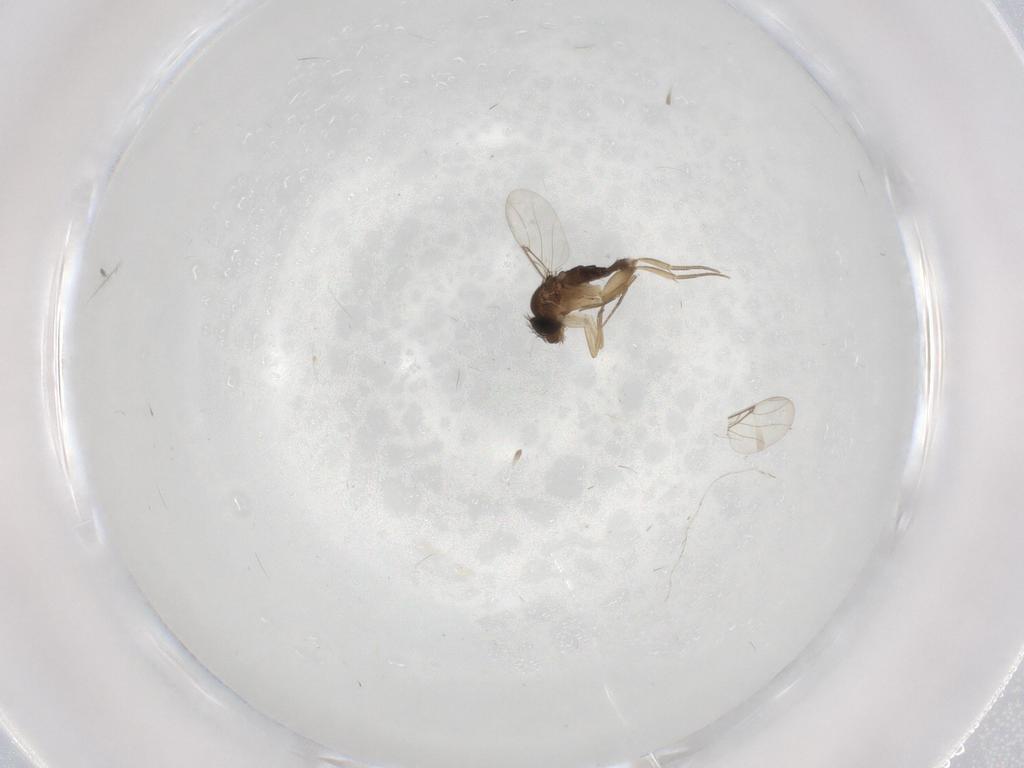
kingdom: Animalia
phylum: Arthropoda
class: Insecta
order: Diptera
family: Phoridae
